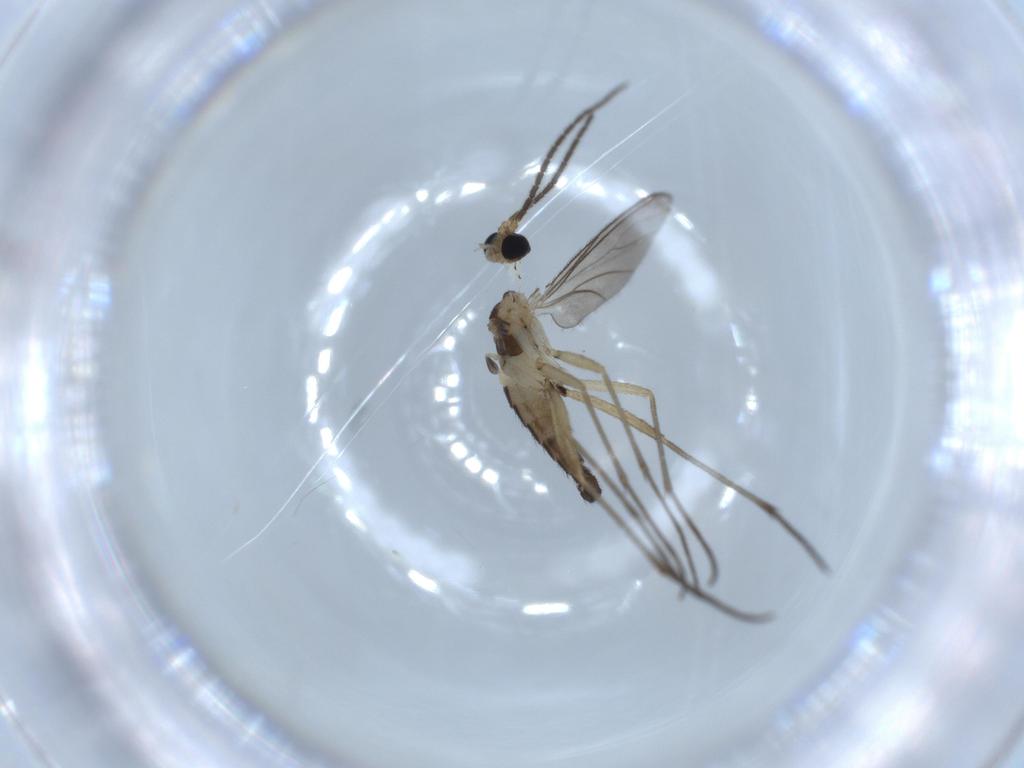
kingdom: Animalia
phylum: Arthropoda
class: Insecta
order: Diptera
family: Sciaridae
